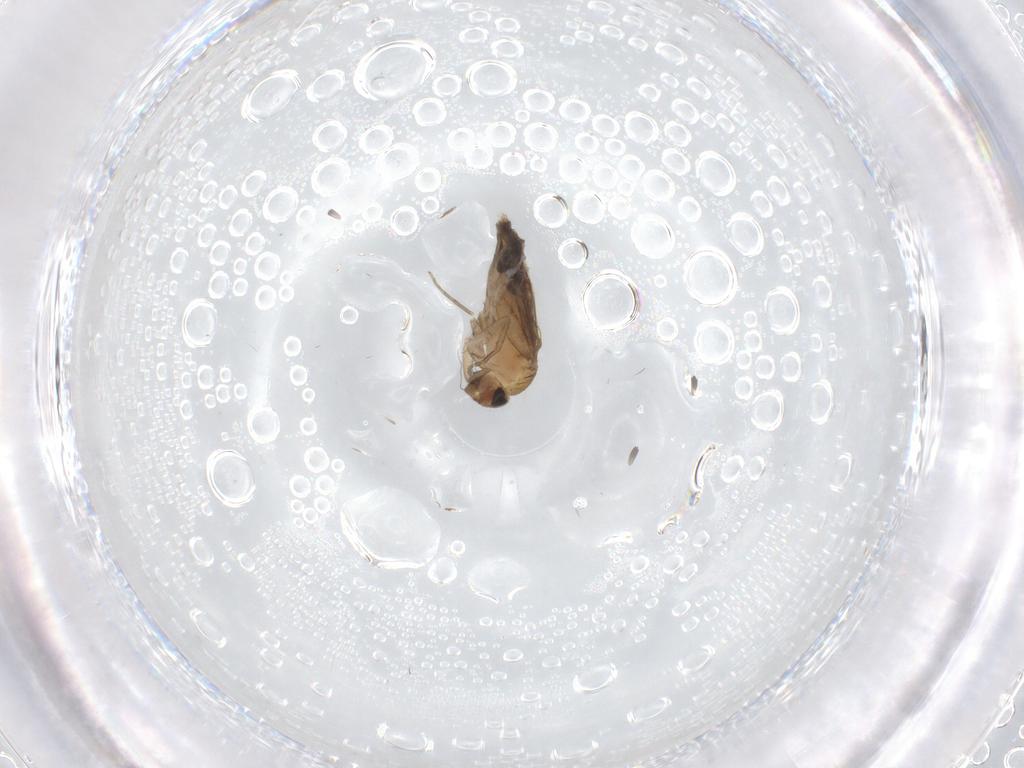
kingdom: Animalia
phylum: Arthropoda
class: Insecta
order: Diptera
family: Phoridae
